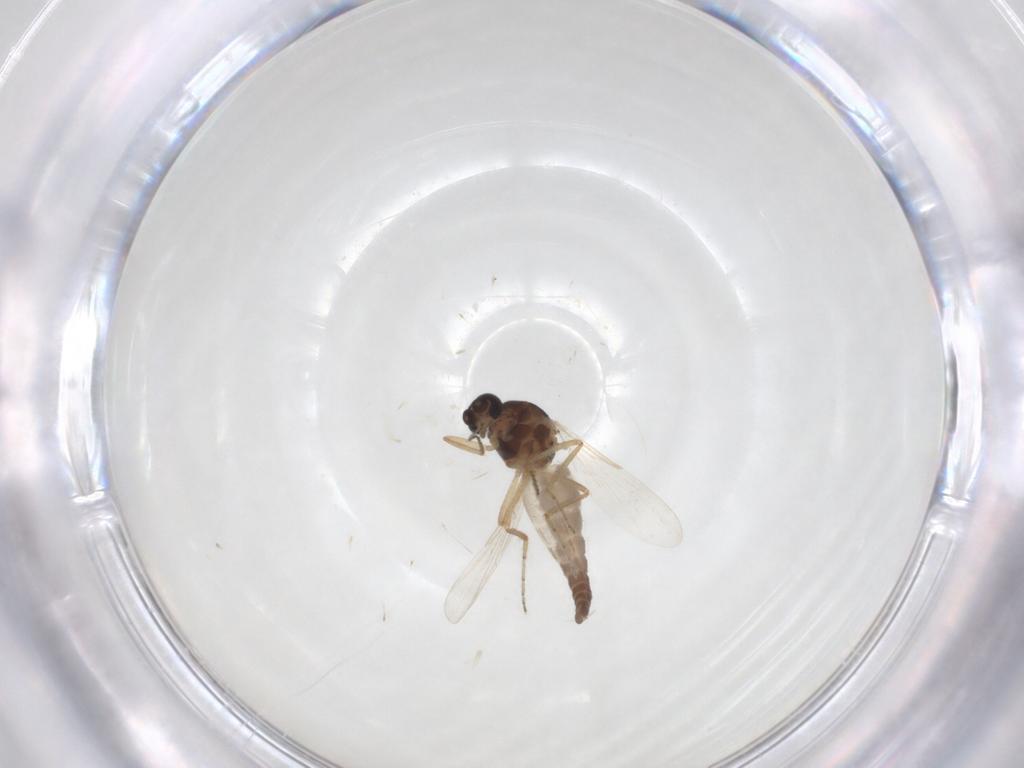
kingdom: Animalia
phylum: Arthropoda
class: Insecta
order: Diptera
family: Ceratopogonidae
